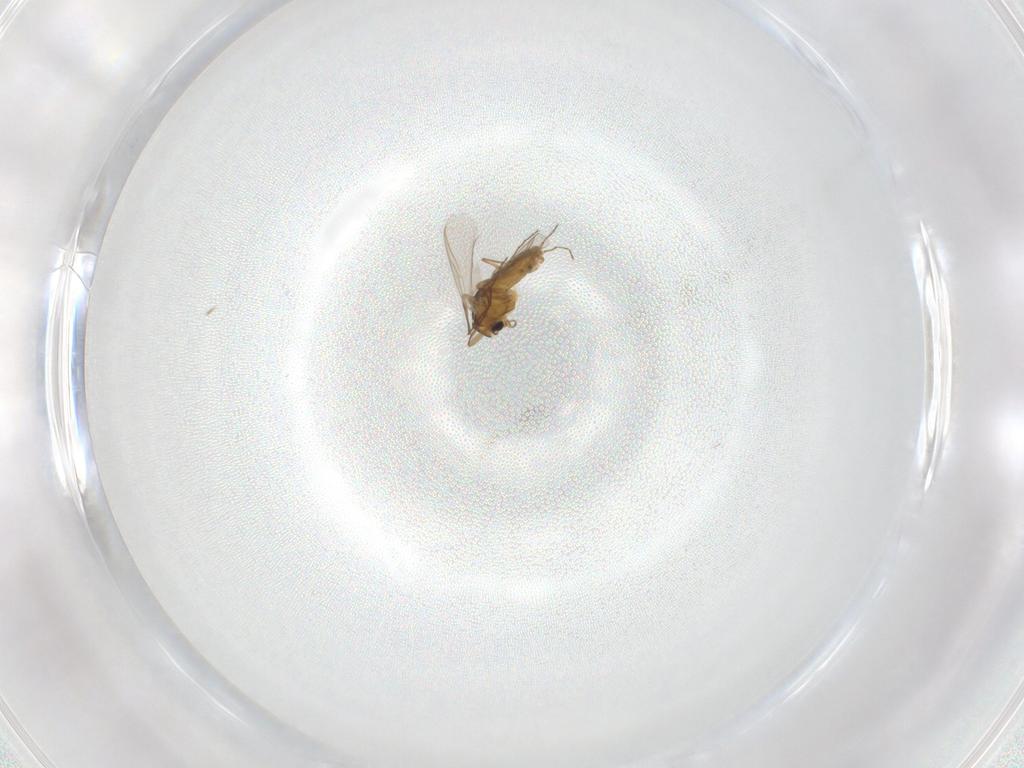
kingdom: Animalia
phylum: Arthropoda
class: Insecta
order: Diptera
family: Chironomidae
